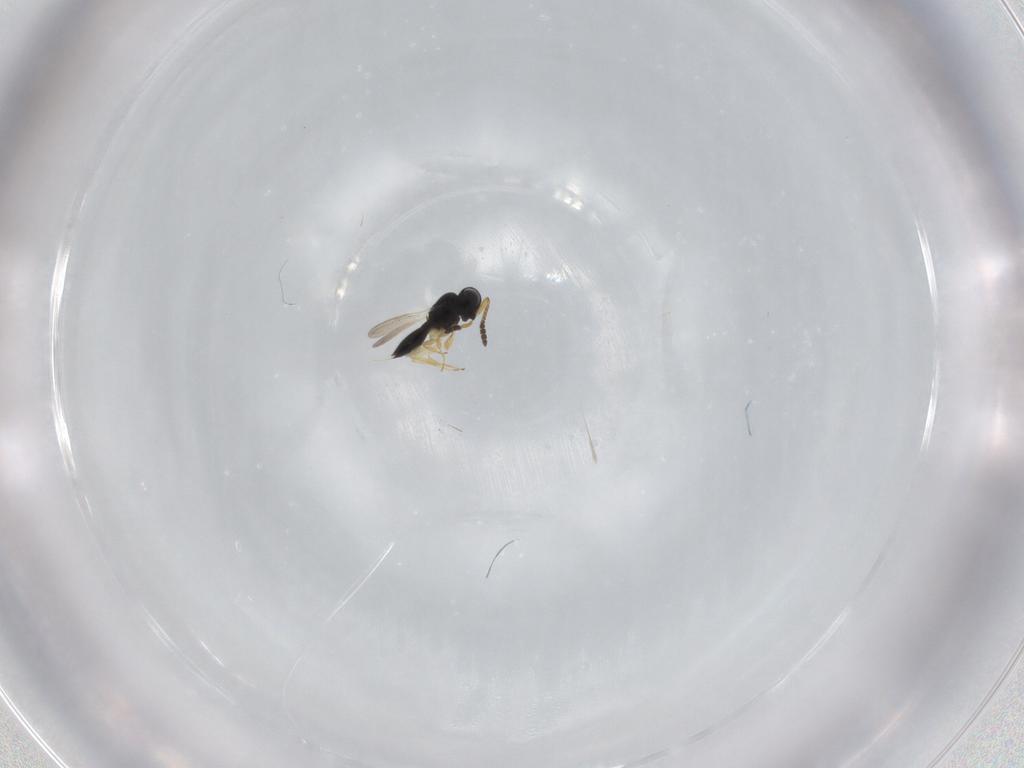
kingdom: Animalia
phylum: Arthropoda
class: Insecta
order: Hymenoptera
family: Scelionidae
